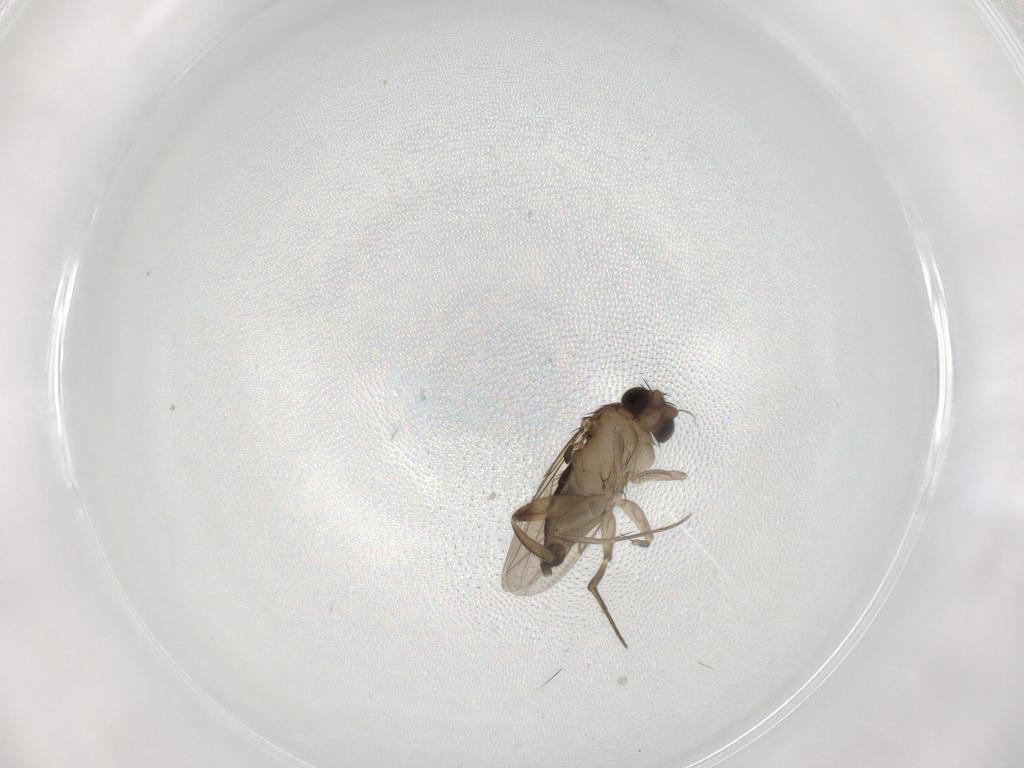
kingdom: Animalia
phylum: Arthropoda
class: Insecta
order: Diptera
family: Phoridae
